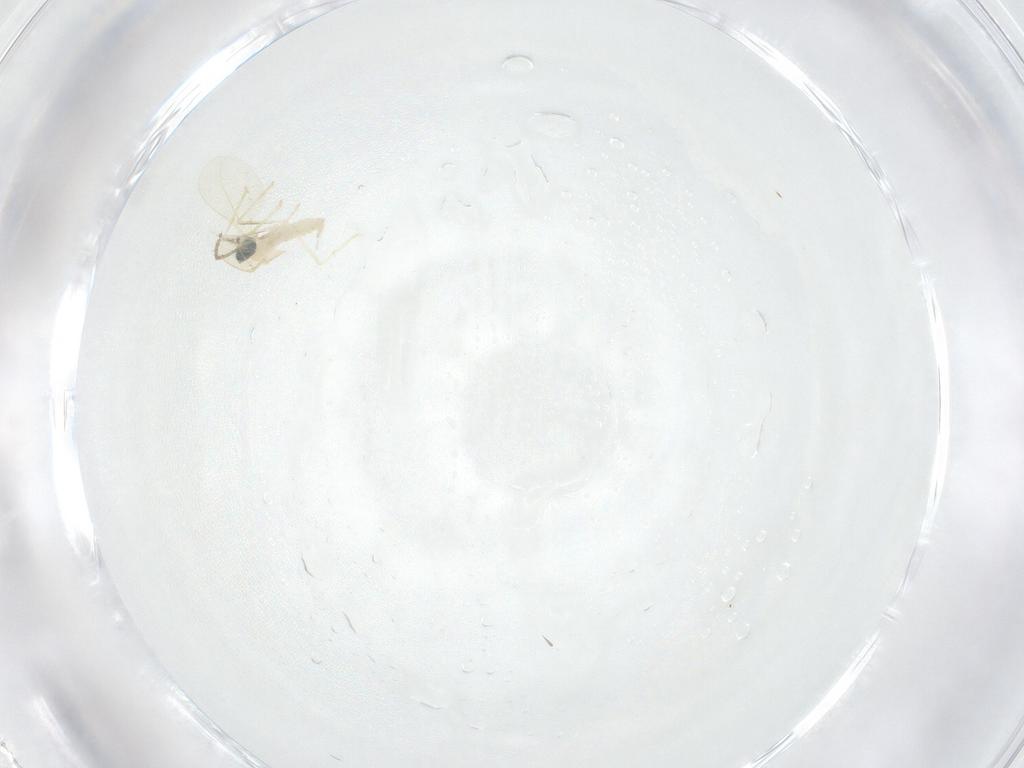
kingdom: Animalia
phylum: Arthropoda
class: Insecta
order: Diptera
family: Cecidomyiidae
